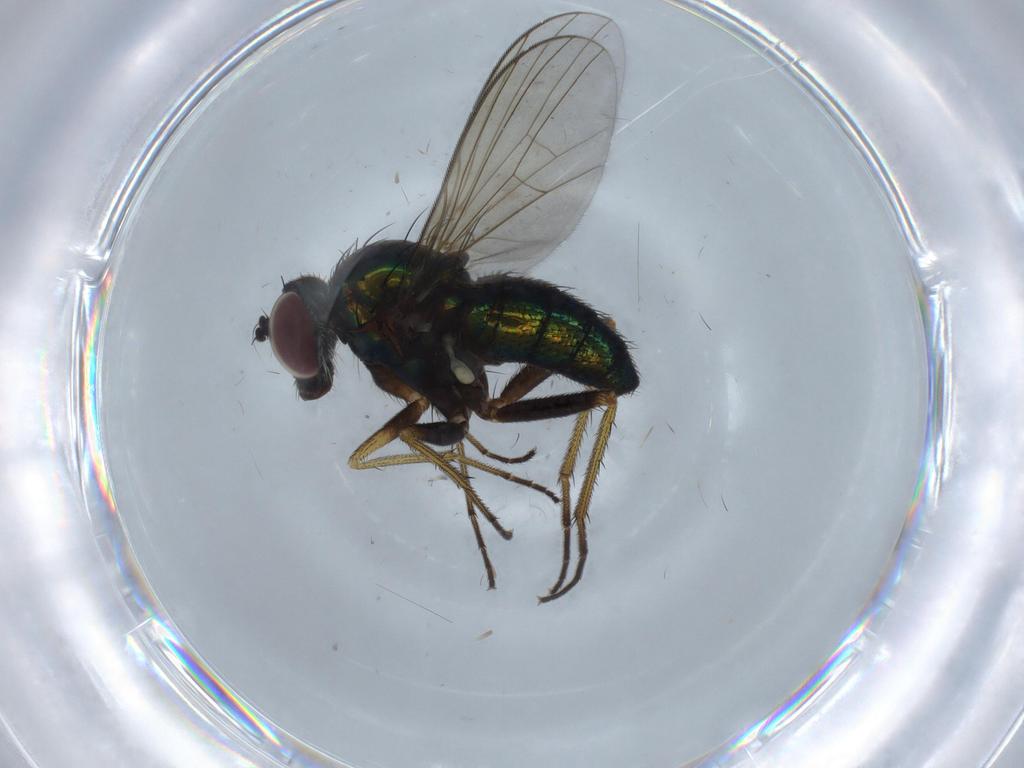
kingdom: Animalia
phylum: Arthropoda
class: Insecta
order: Diptera
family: Dolichopodidae
